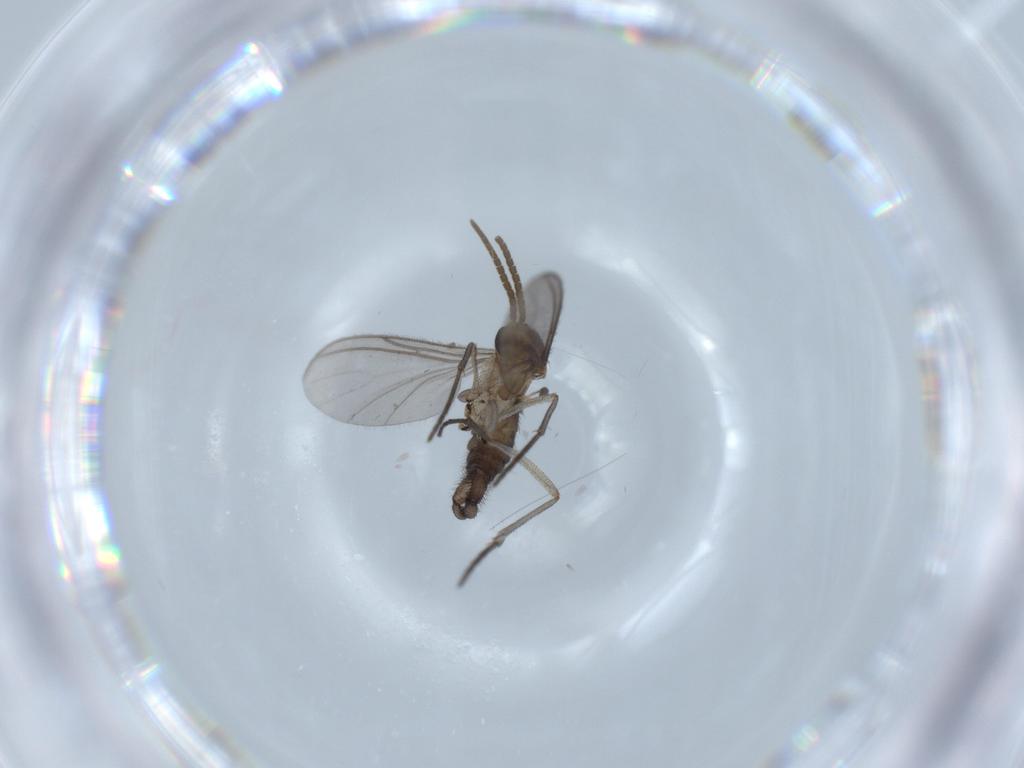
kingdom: Animalia
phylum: Arthropoda
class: Insecta
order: Diptera
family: Sciaridae
